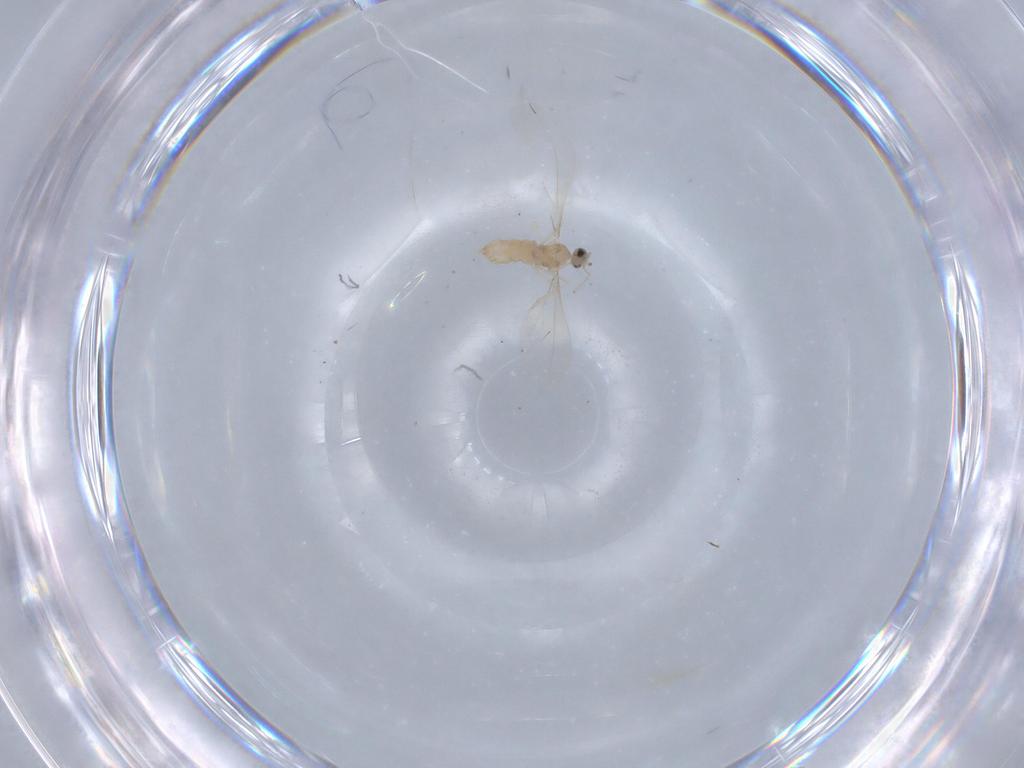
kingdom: Animalia
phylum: Arthropoda
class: Insecta
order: Diptera
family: Cecidomyiidae
